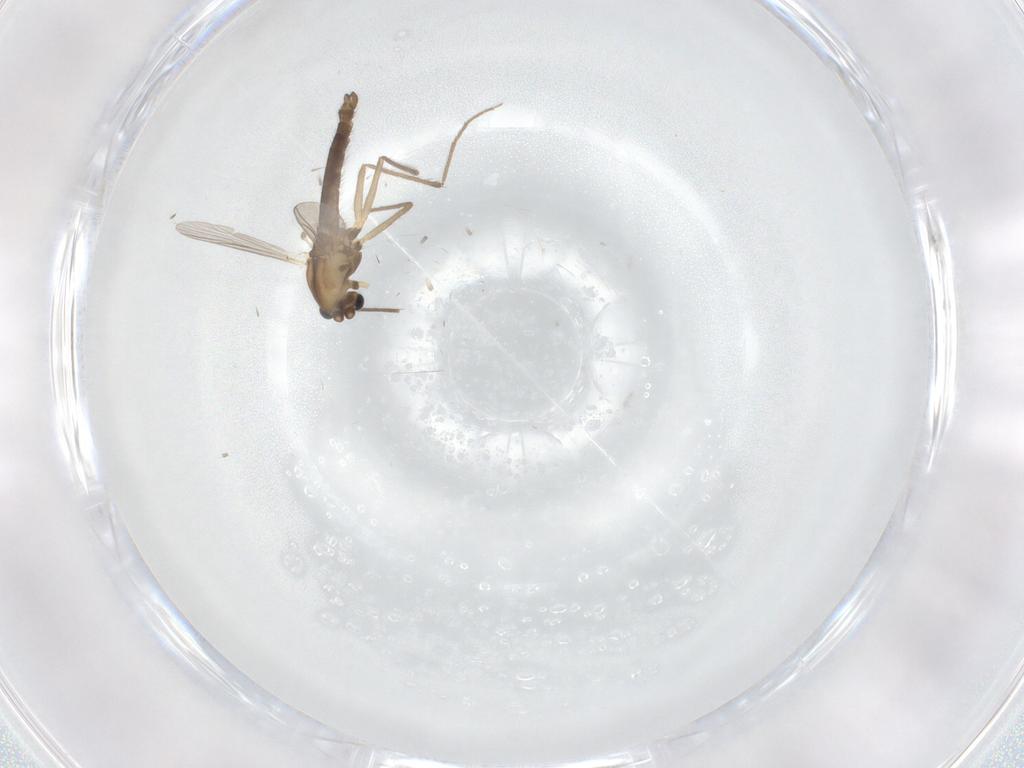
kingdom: Animalia
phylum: Arthropoda
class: Insecta
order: Diptera
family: Chironomidae
